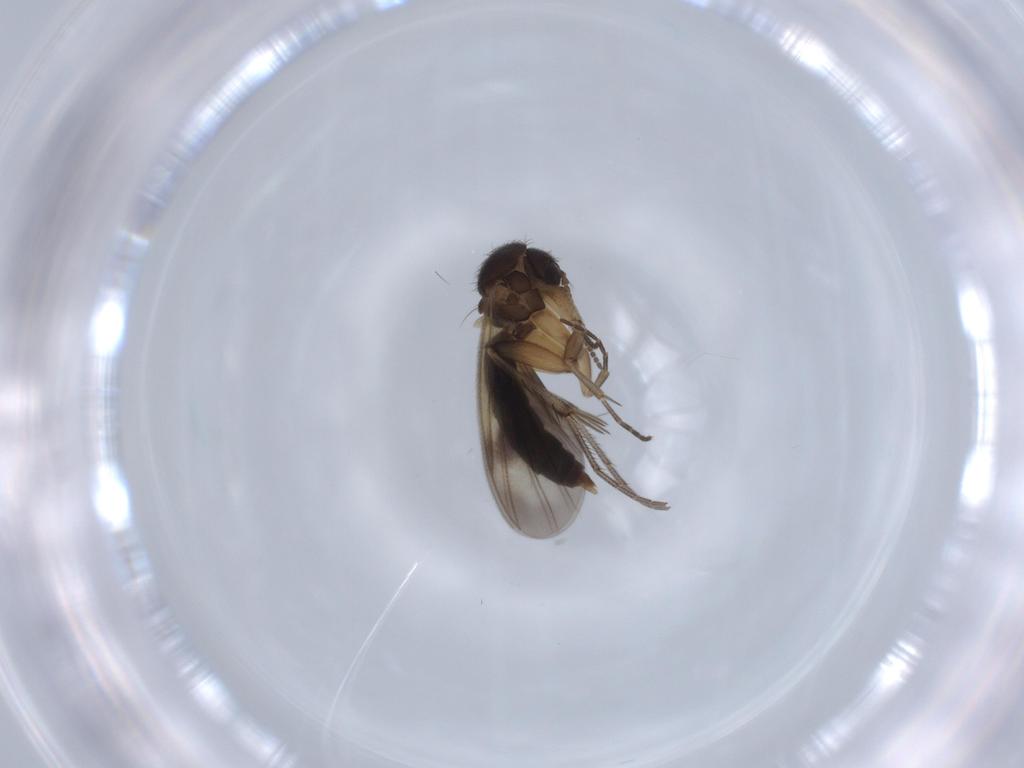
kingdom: Animalia
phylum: Arthropoda
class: Insecta
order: Diptera
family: Mycetophilidae
